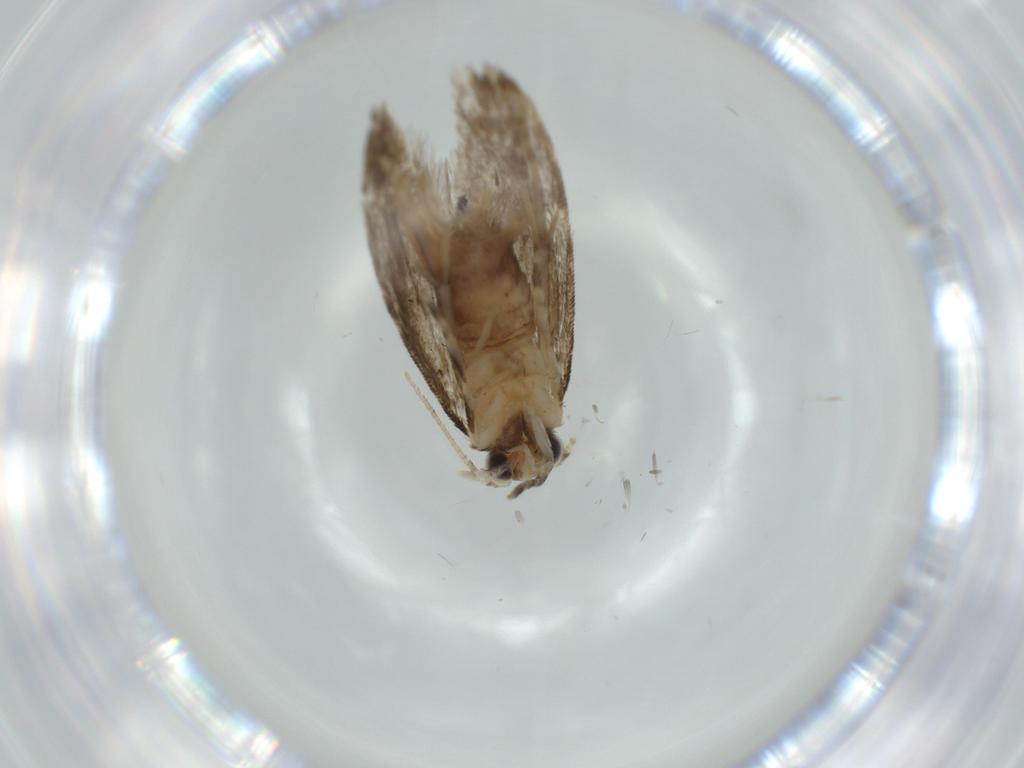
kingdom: Animalia
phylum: Arthropoda
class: Insecta
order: Lepidoptera
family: Tineidae
